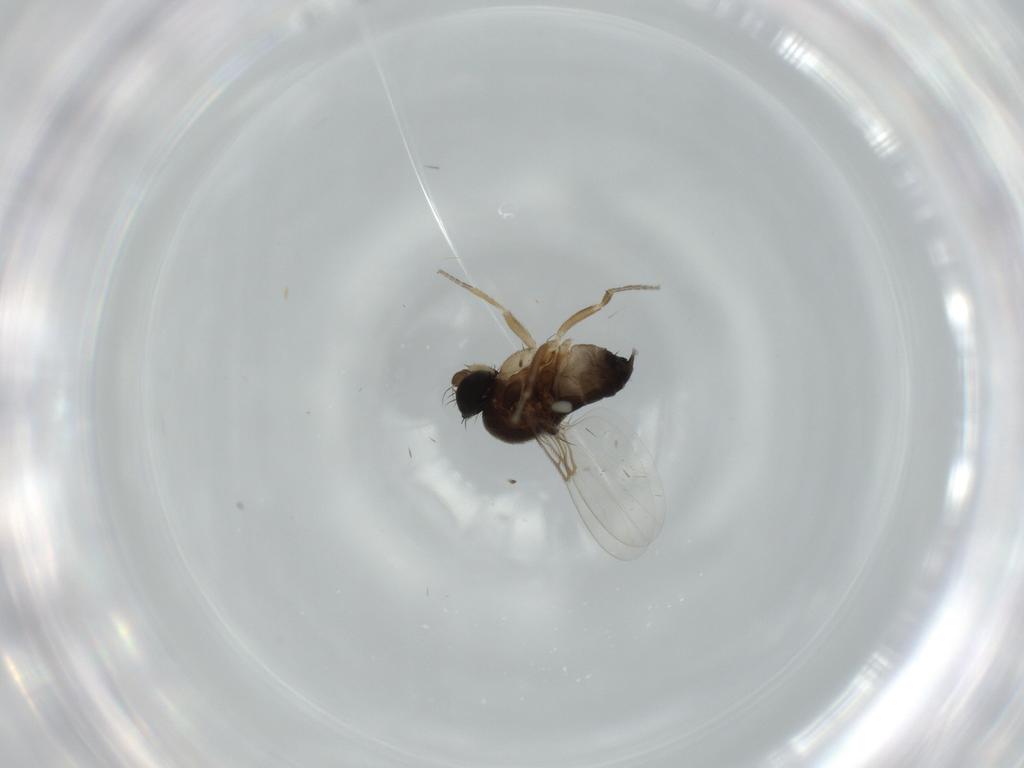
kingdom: Animalia
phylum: Arthropoda
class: Insecta
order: Diptera
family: Phoridae
